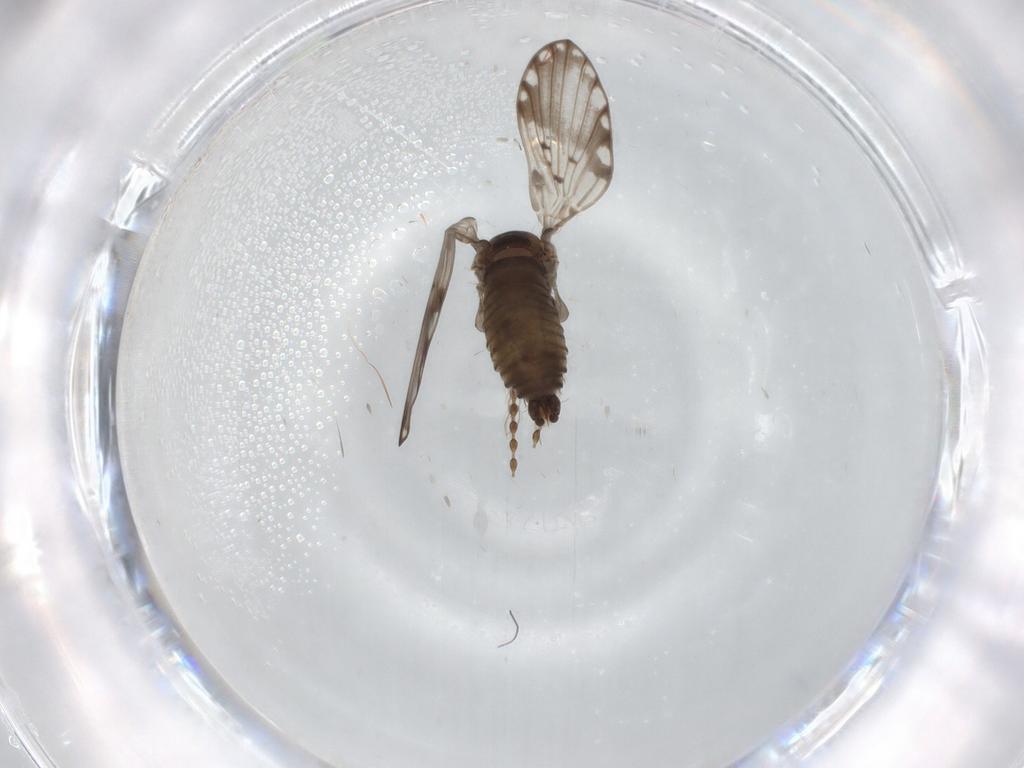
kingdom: Animalia
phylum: Arthropoda
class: Insecta
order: Diptera
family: Psychodidae
